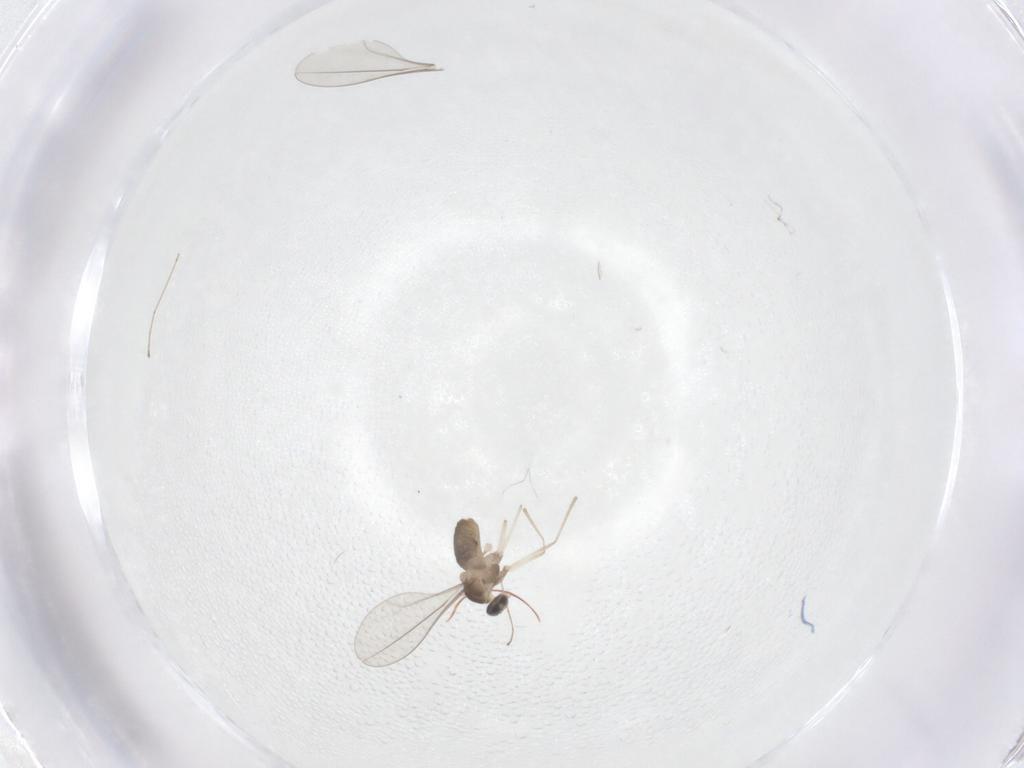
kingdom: Animalia
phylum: Arthropoda
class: Insecta
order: Diptera
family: Cecidomyiidae
